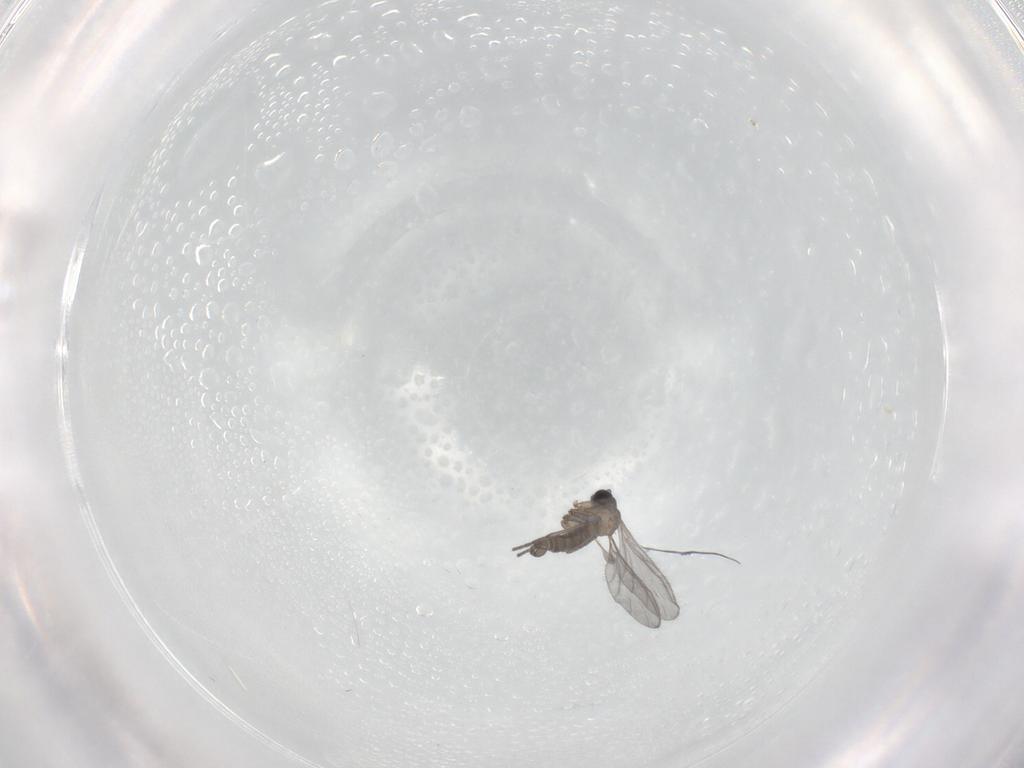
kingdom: Animalia
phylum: Arthropoda
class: Insecta
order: Diptera
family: Sciaridae
